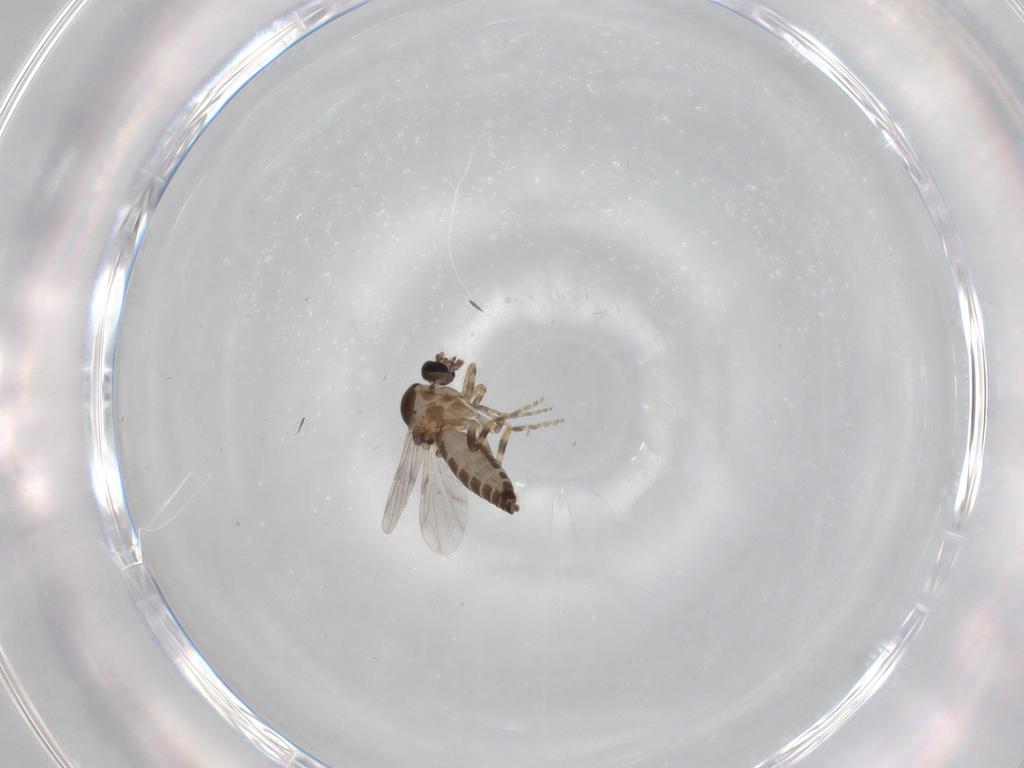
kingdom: Animalia
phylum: Arthropoda
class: Insecta
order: Diptera
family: Ceratopogonidae
